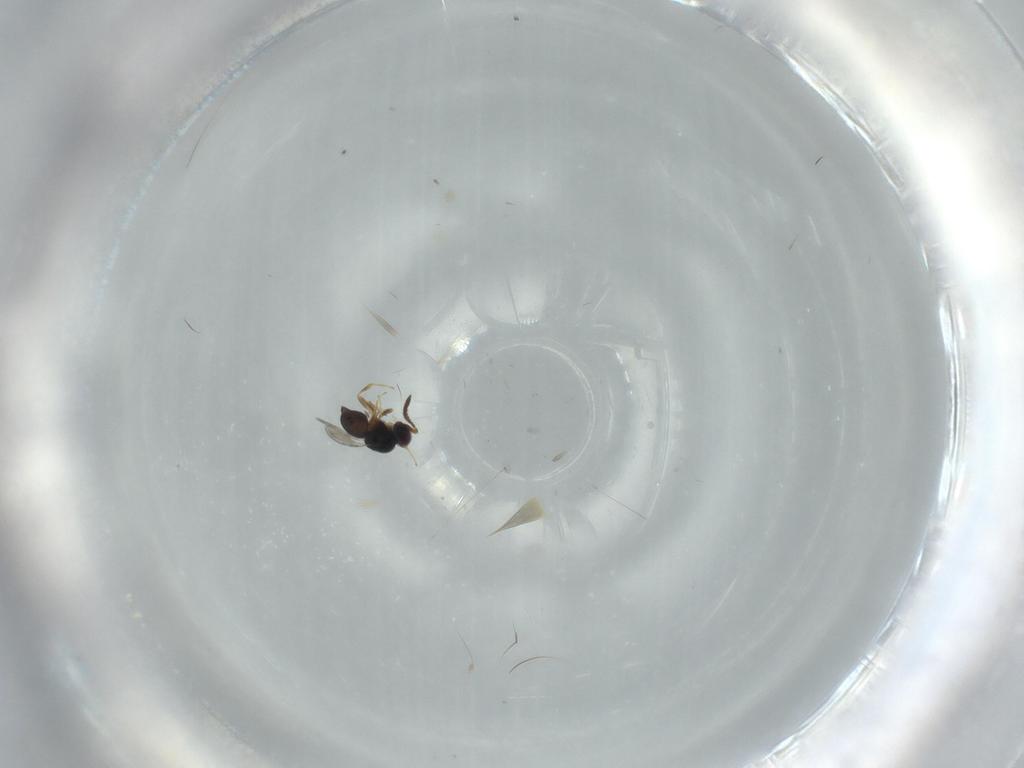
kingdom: Animalia
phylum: Arthropoda
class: Insecta
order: Hymenoptera
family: Ceraphronidae
